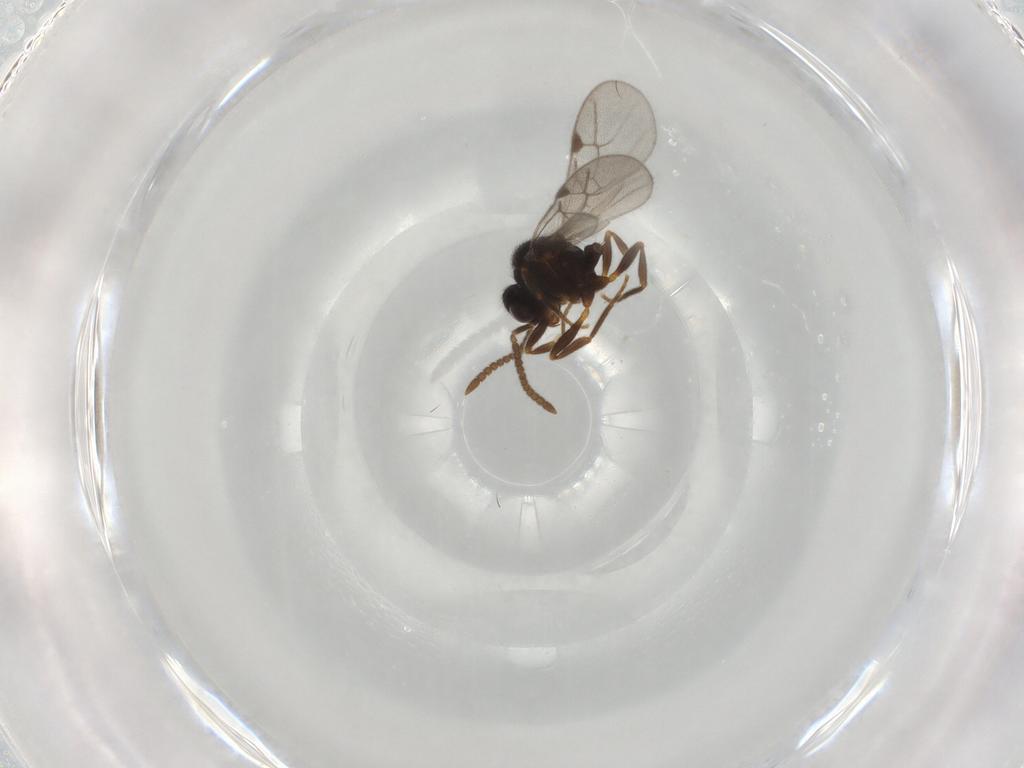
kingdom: Animalia
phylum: Arthropoda
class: Insecta
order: Hymenoptera
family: Formicidae
